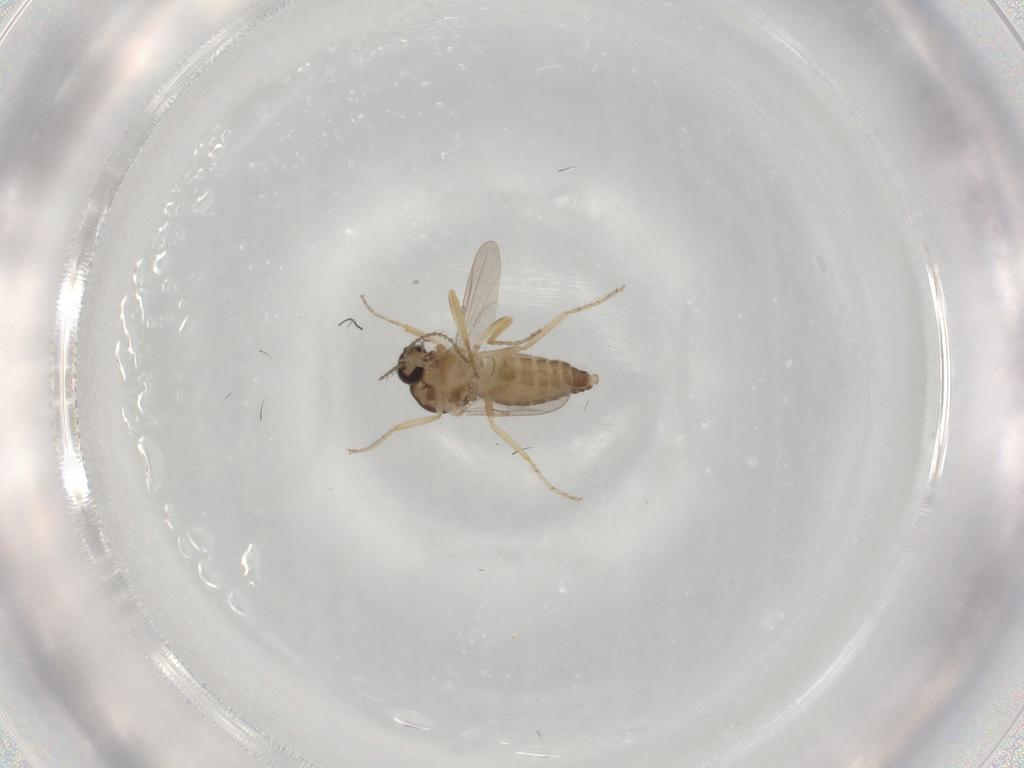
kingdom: Animalia
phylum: Arthropoda
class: Insecta
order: Diptera
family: Ceratopogonidae
